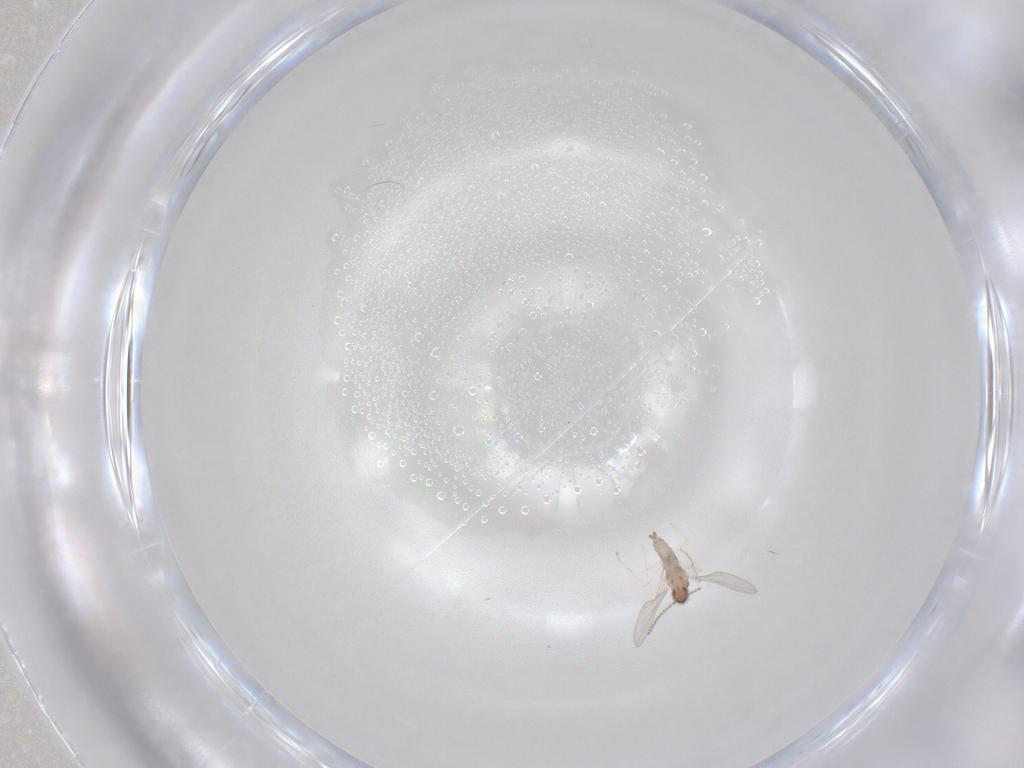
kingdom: Animalia
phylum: Arthropoda
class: Insecta
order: Diptera
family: Cecidomyiidae
